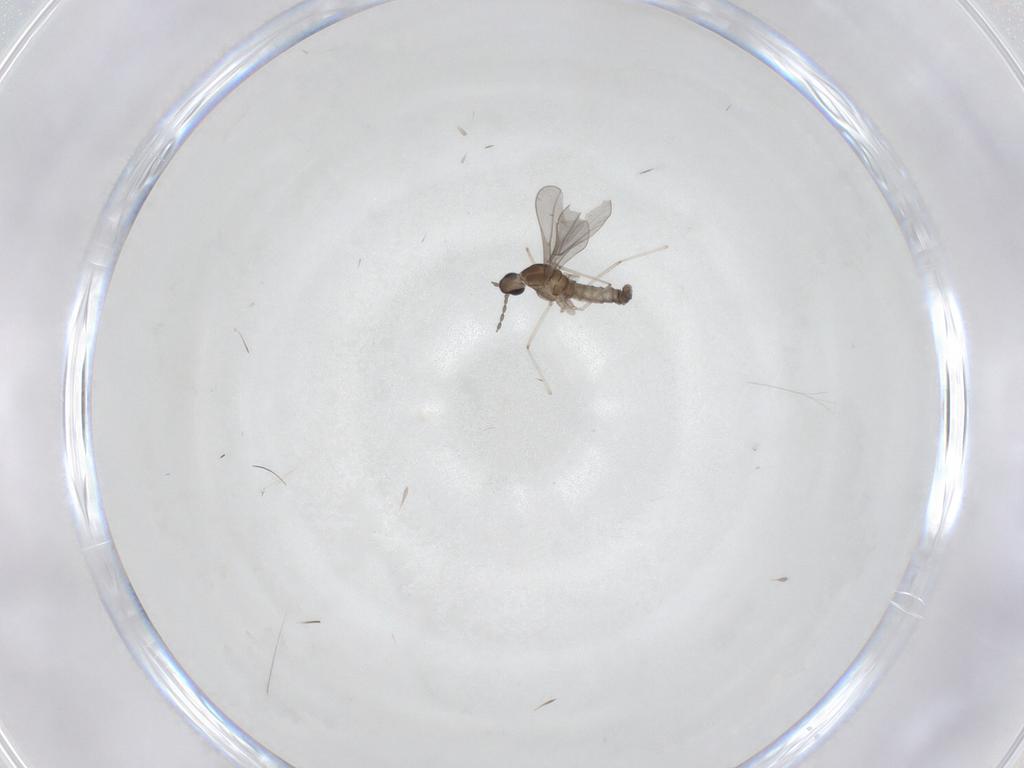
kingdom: Animalia
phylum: Arthropoda
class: Insecta
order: Diptera
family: Cecidomyiidae
